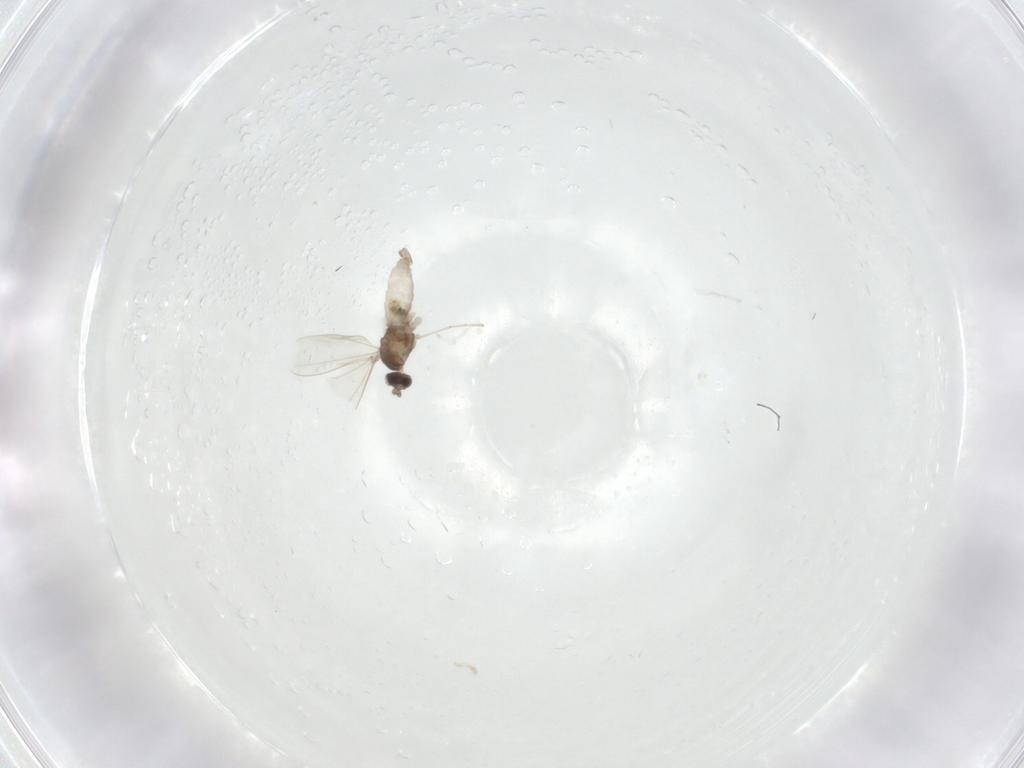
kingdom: Animalia
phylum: Arthropoda
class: Insecta
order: Diptera
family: Cecidomyiidae
